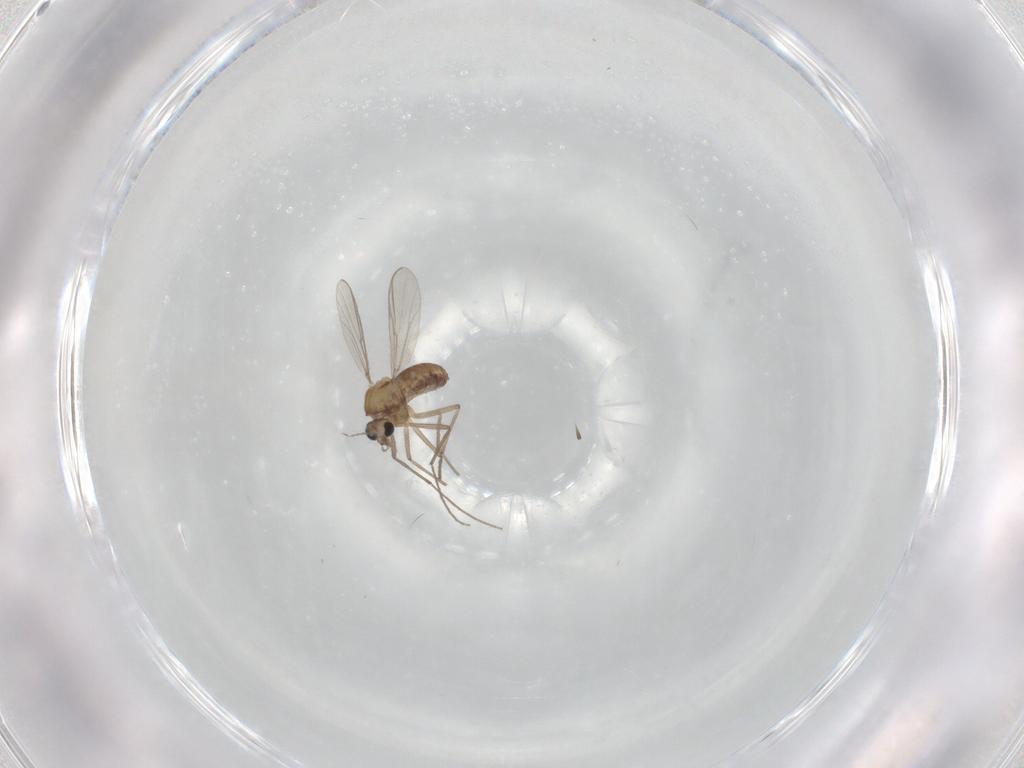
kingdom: Animalia
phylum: Arthropoda
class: Insecta
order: Diptera
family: Chironomidae
